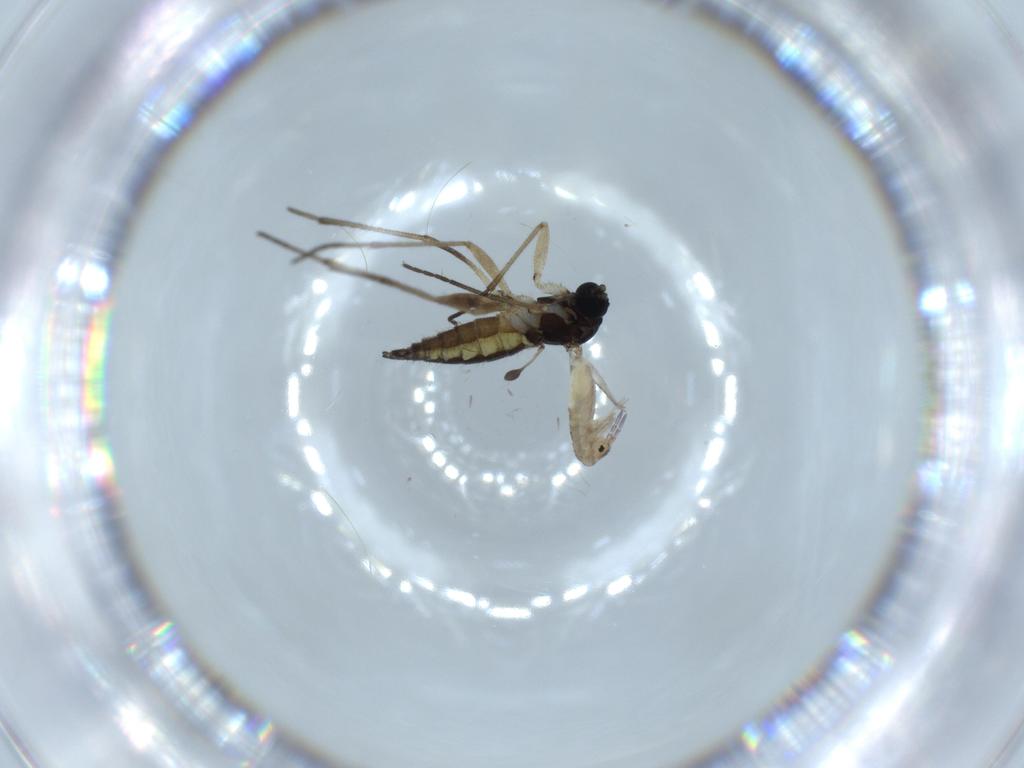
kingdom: Animalia
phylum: Arthropoda
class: Insecta
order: Diptera
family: Sciaridae
